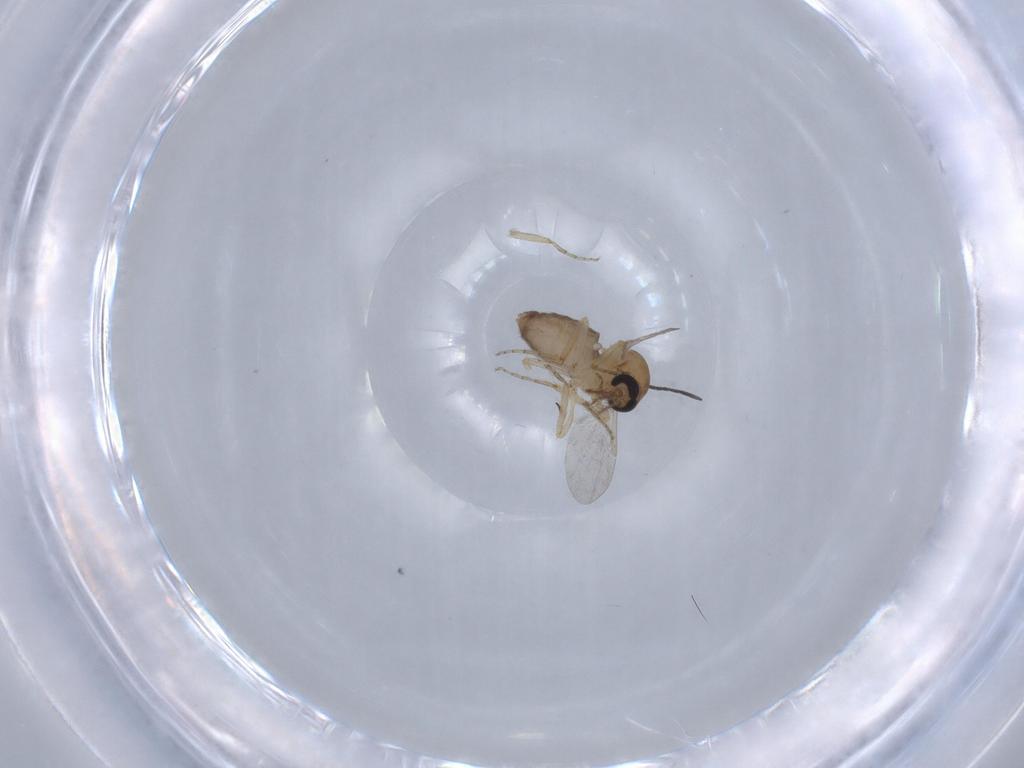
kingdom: Animalia
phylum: Arthropoda
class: Insecta
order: Diptera
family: Ceratopogonidae
